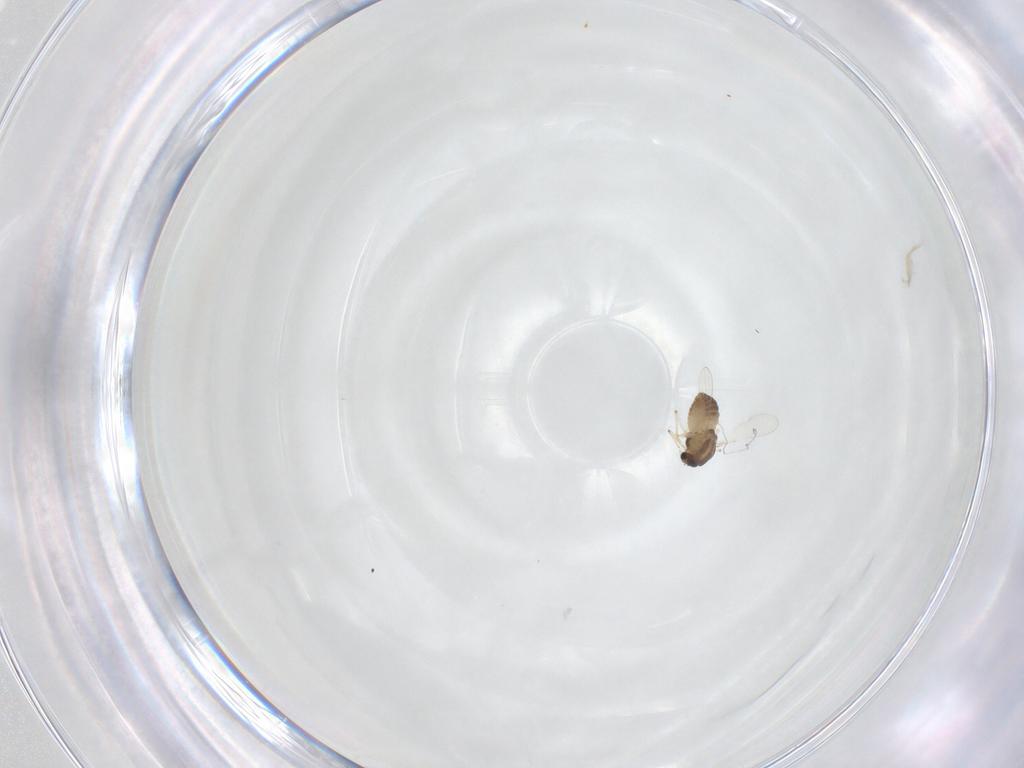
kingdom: Animalia
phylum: Arthropoda
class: Insecta
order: Diptera
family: Chironomidae
